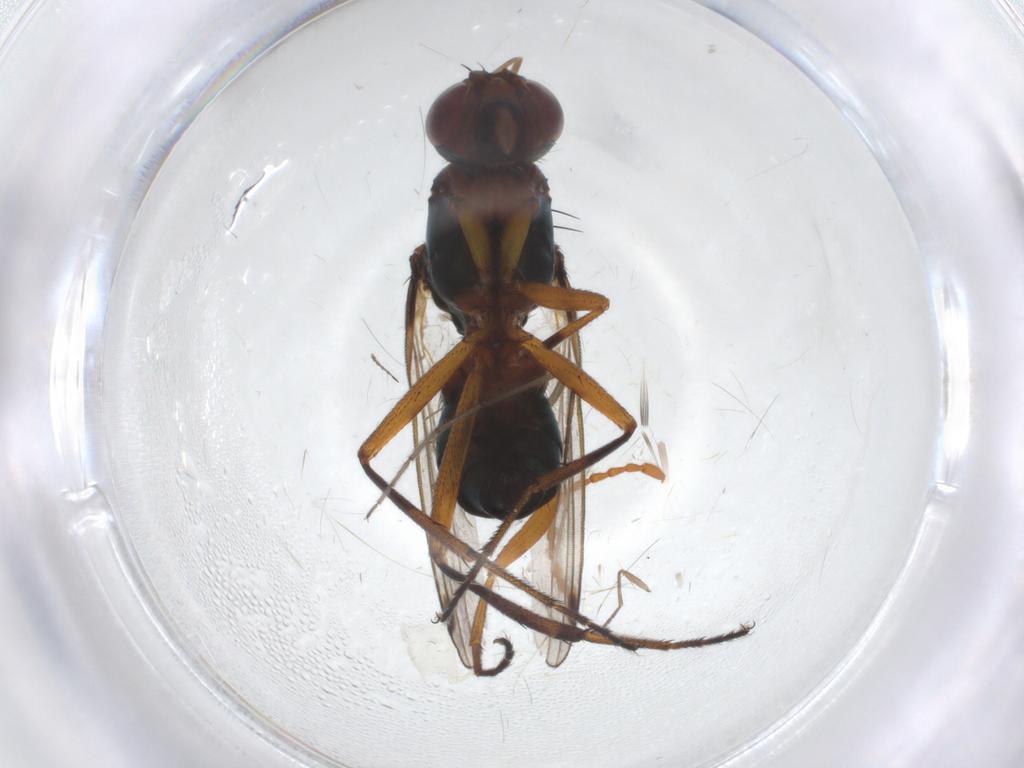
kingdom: Animalia
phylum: Arthropoda
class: Insecta
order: Diptera
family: Sepsidae
